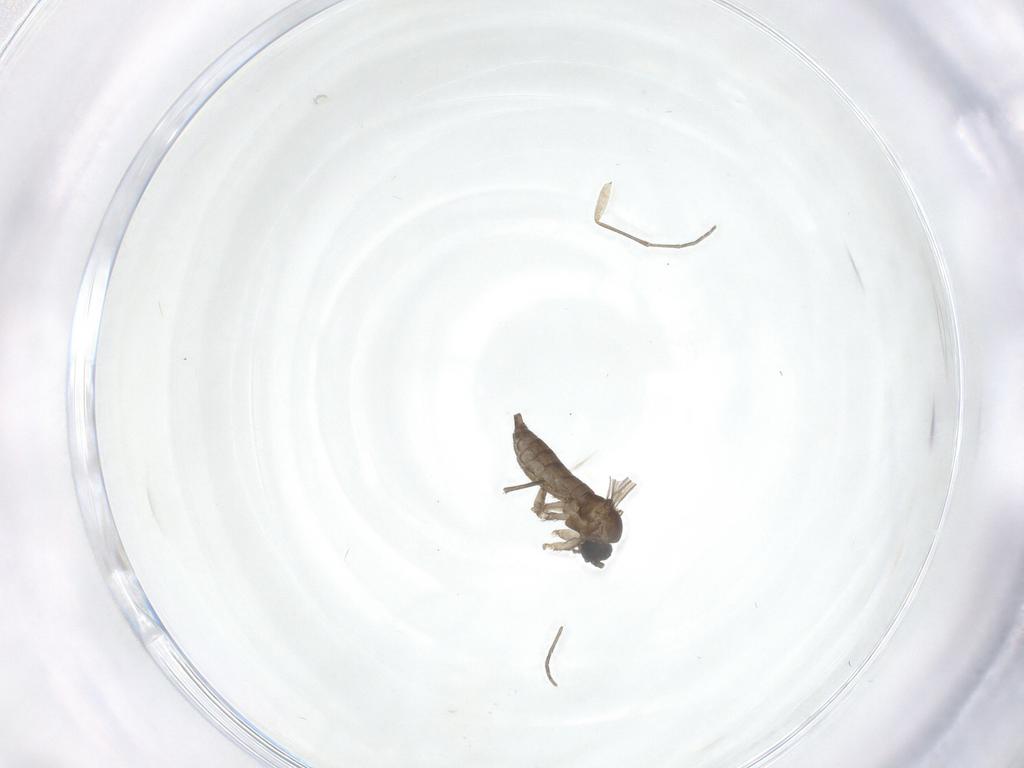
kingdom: Animalia
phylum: Arthropoda
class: Insecta
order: Diptera
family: Sciaridae
